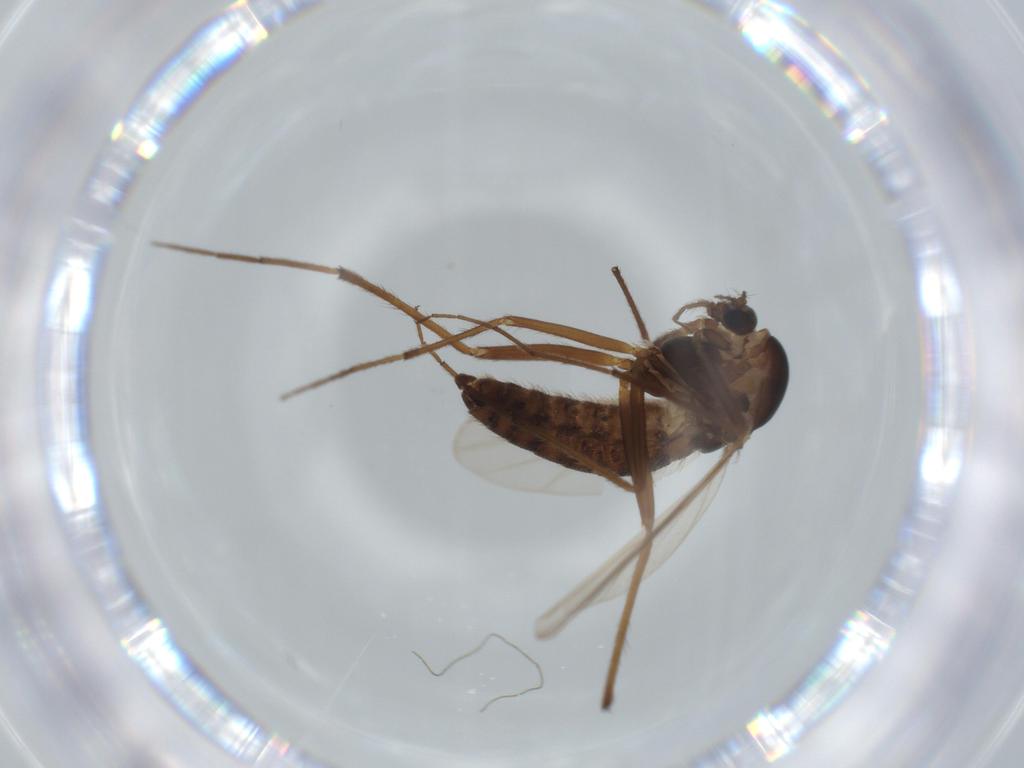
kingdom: Animalia
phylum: Arthropoda
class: Insecta
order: Diptera
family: Chironomidae
